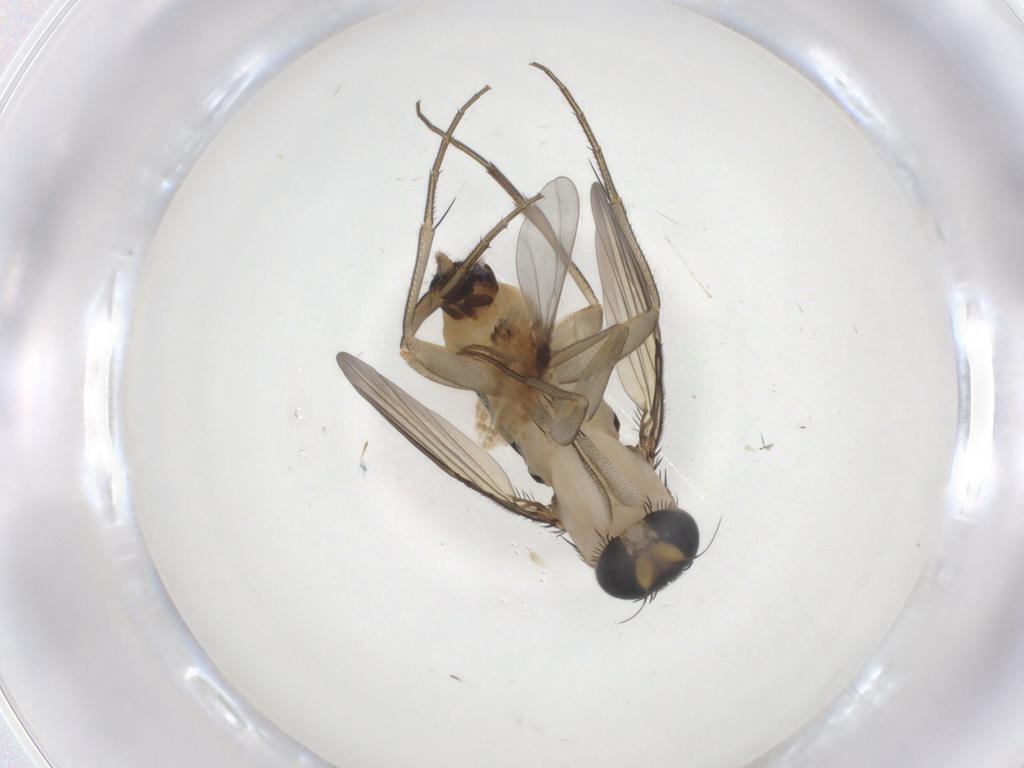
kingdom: Animalia
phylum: Arthropoda
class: Insecta
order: Diptera
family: Phoridae
